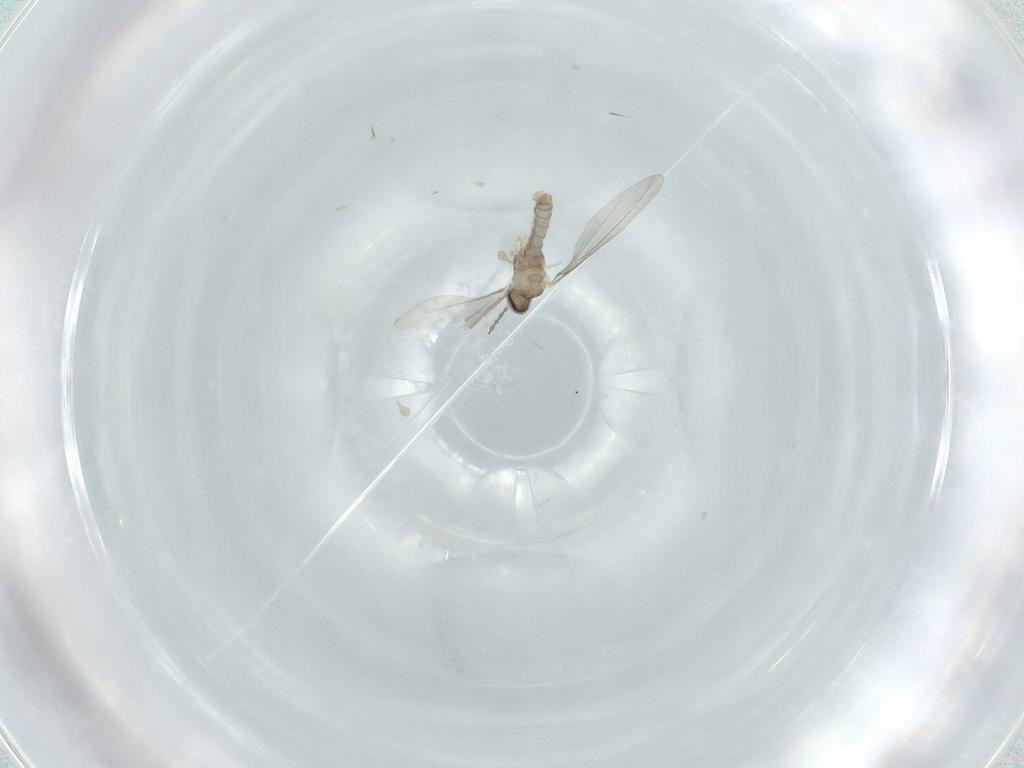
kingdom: Animalia
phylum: Arthropoda
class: Insecta
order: Diptera
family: Cecidomyiidae
